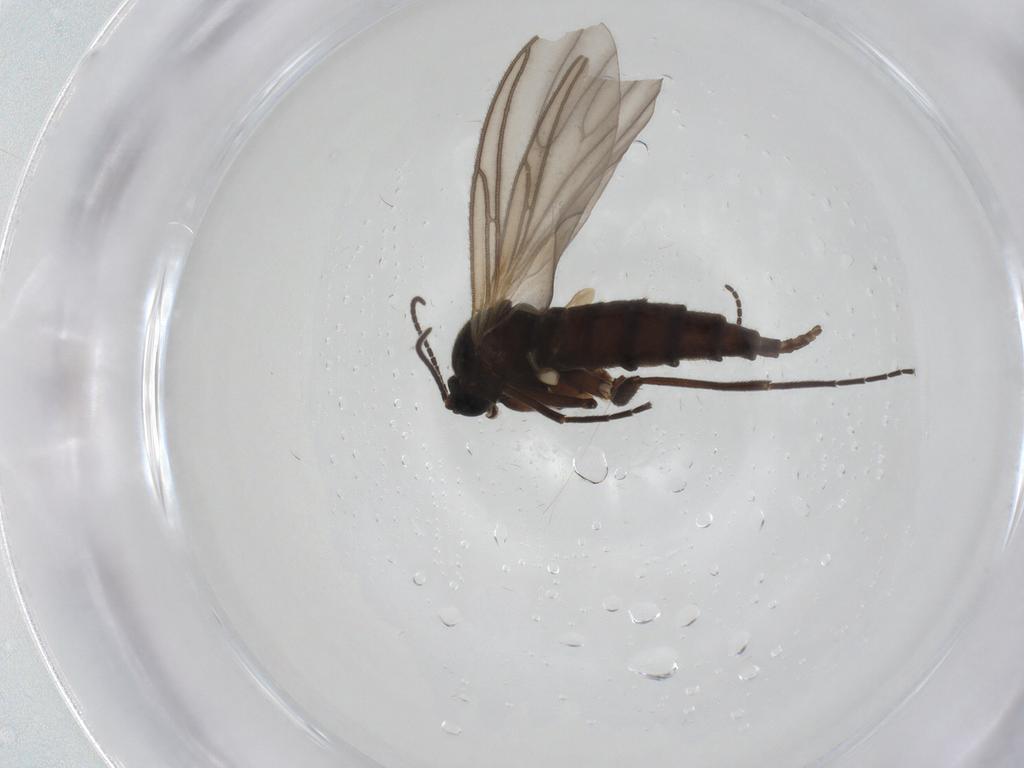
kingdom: Animalia
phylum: Arthropoda
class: Insecta
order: Diptera
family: Sciaridae
